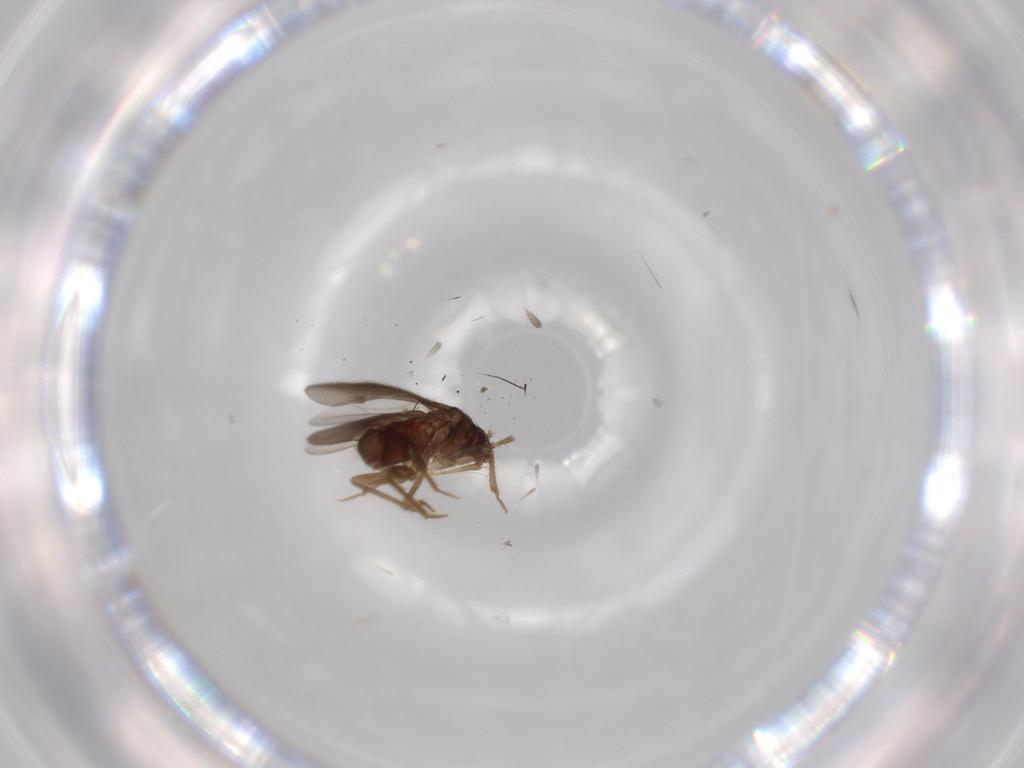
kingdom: Animalia
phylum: Arthropoda
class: Insecta
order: Hemiptera
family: Ceratocombidae
